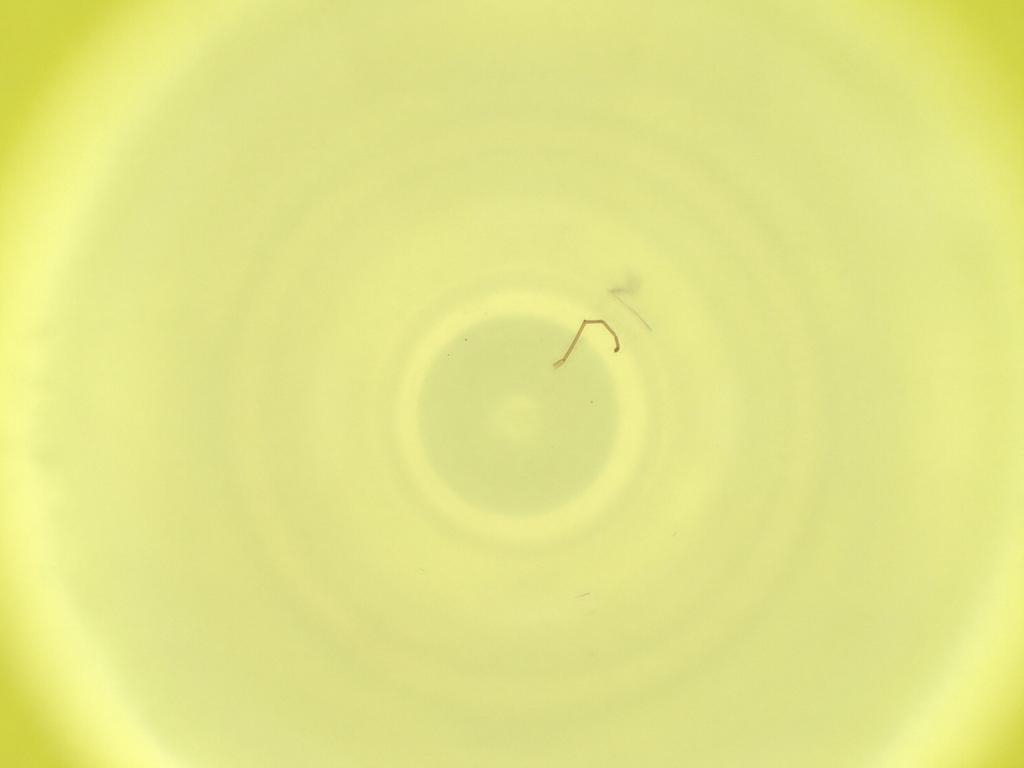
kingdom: Animalia
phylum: Arthropoda
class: Insecta
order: Diptera
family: Cecidomyiidae
